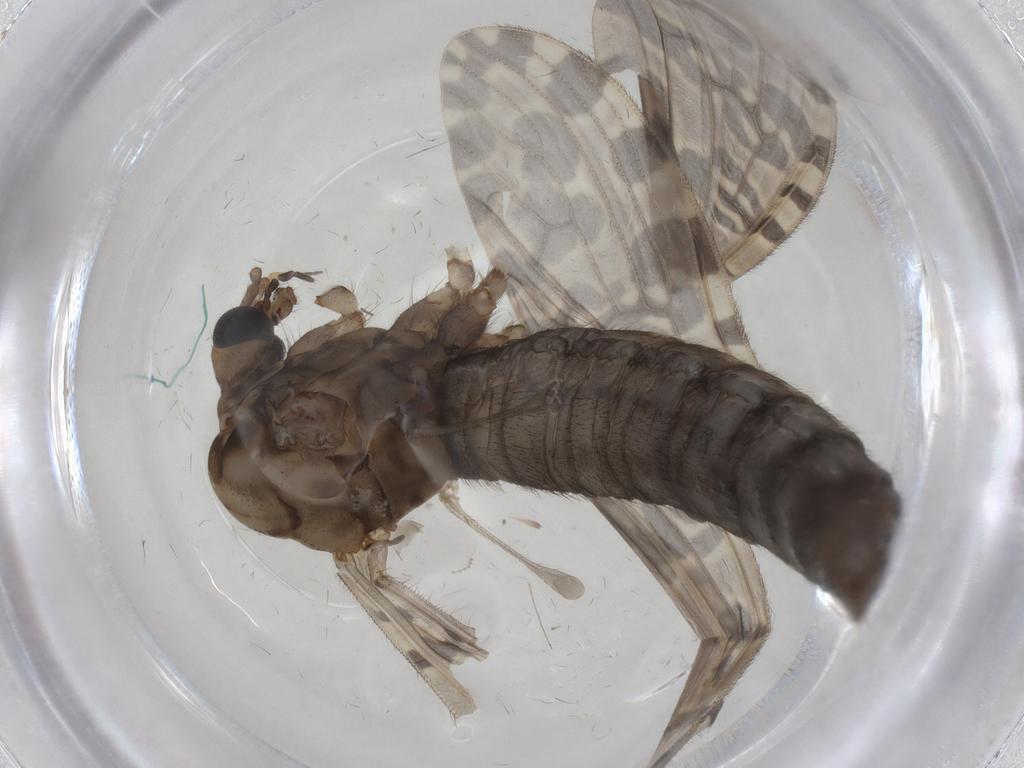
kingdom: Animalia
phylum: Arthropoda
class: Insecta
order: Diptera
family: Limoniidae
